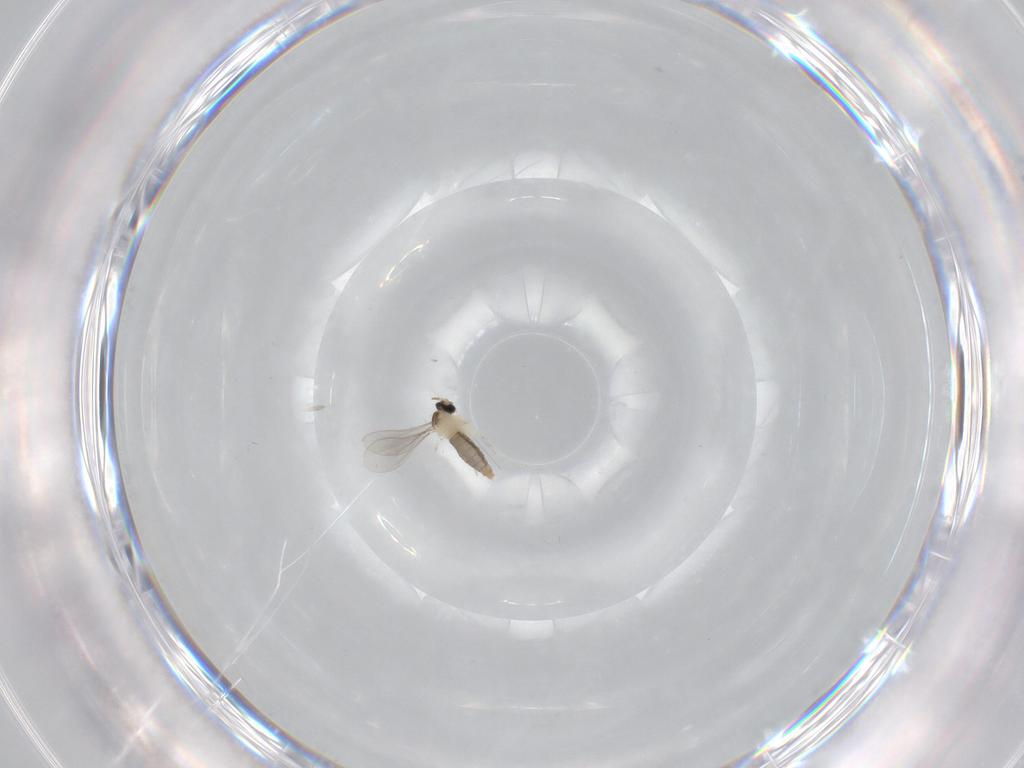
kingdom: Animalia
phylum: Arthropoda
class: Insecta
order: Diptera
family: Cecidomyiidae
